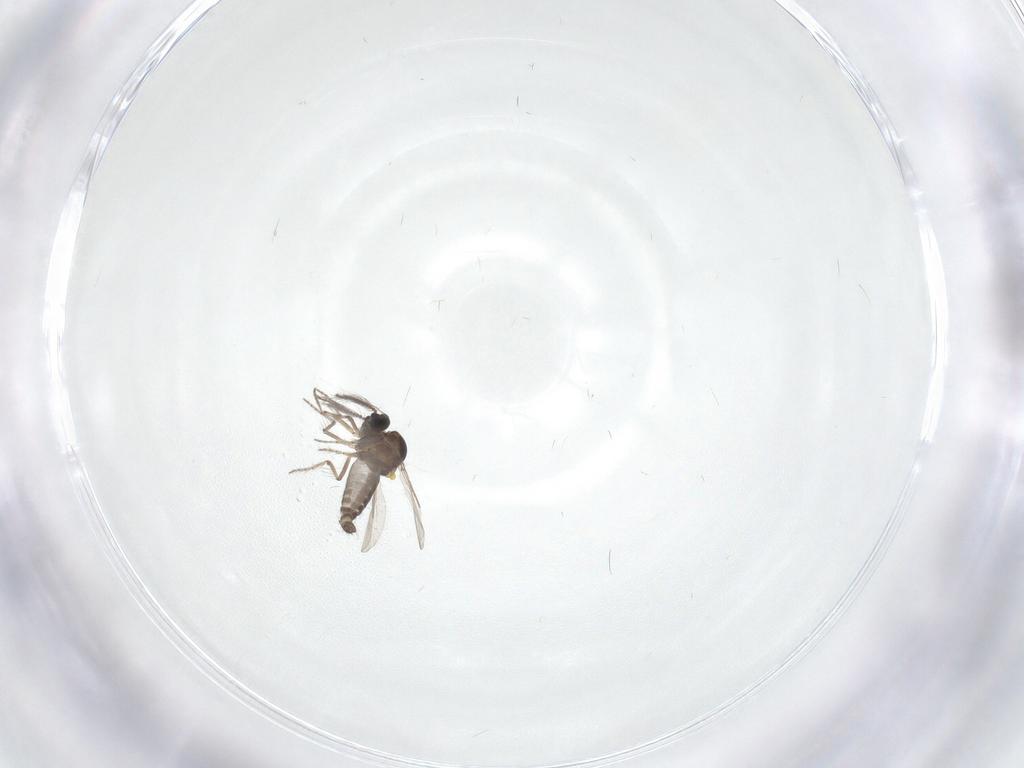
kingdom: Animalia
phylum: Arthropoda
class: Insecta
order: Diptera
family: Mycetophilidae
